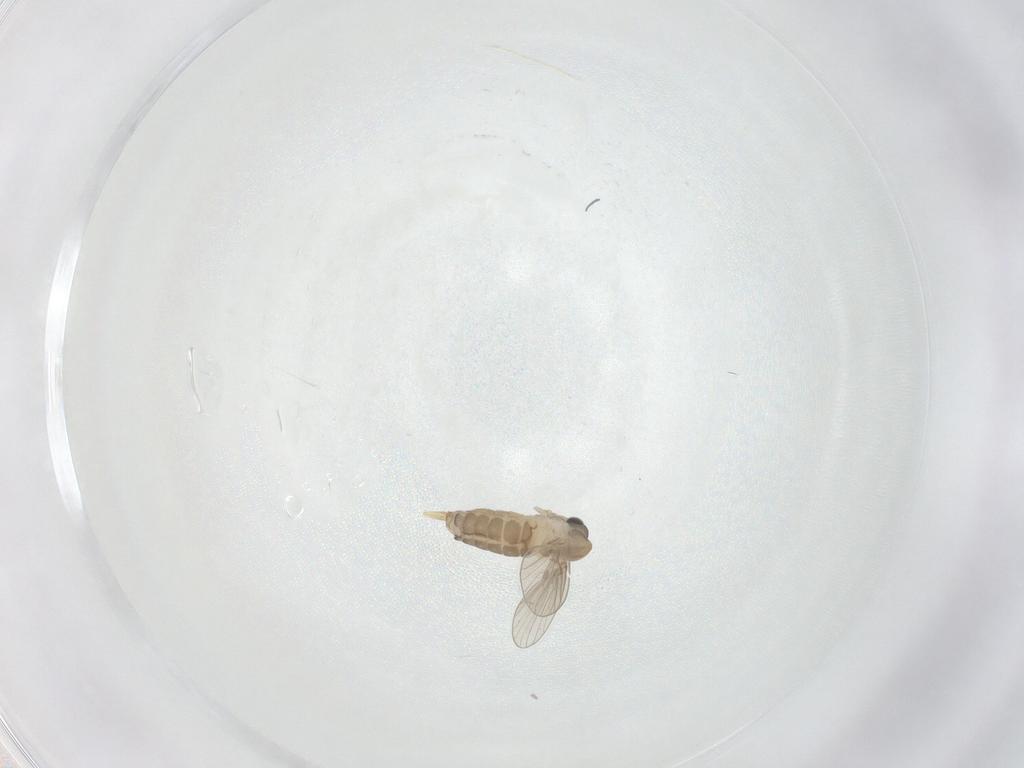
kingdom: Animalia
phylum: Arthropoda
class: Insecta
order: Diptera
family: Psychodidae
